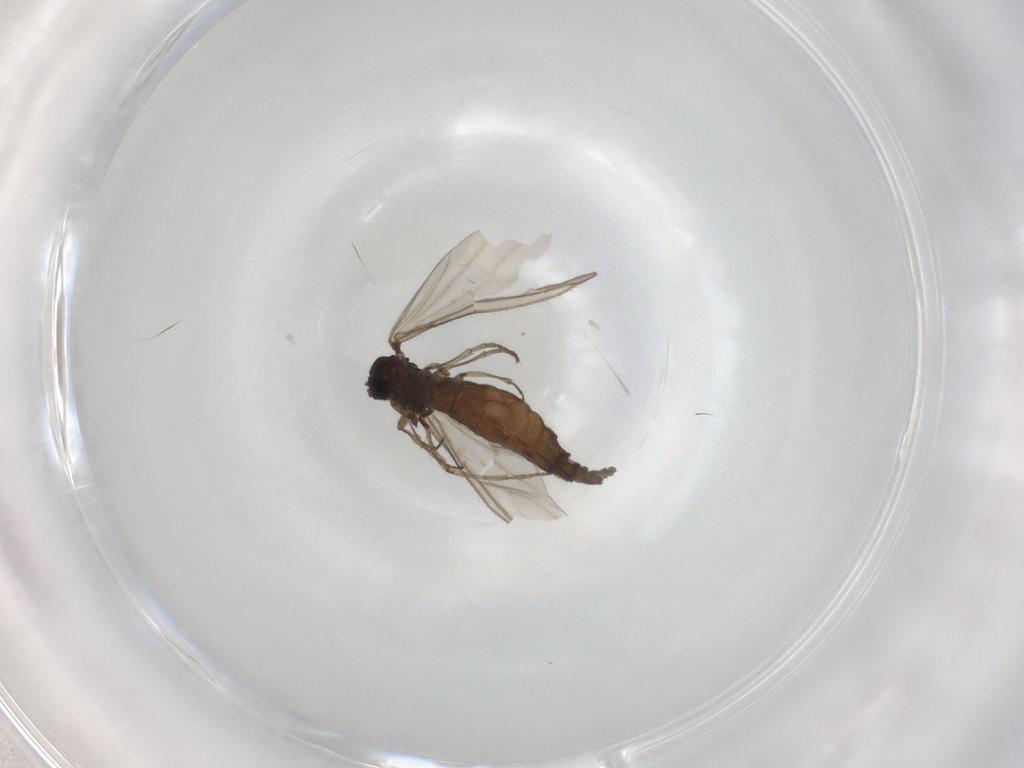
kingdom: Animalia
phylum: Arthropoda
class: Insecta
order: Diptera
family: Sciaridae
